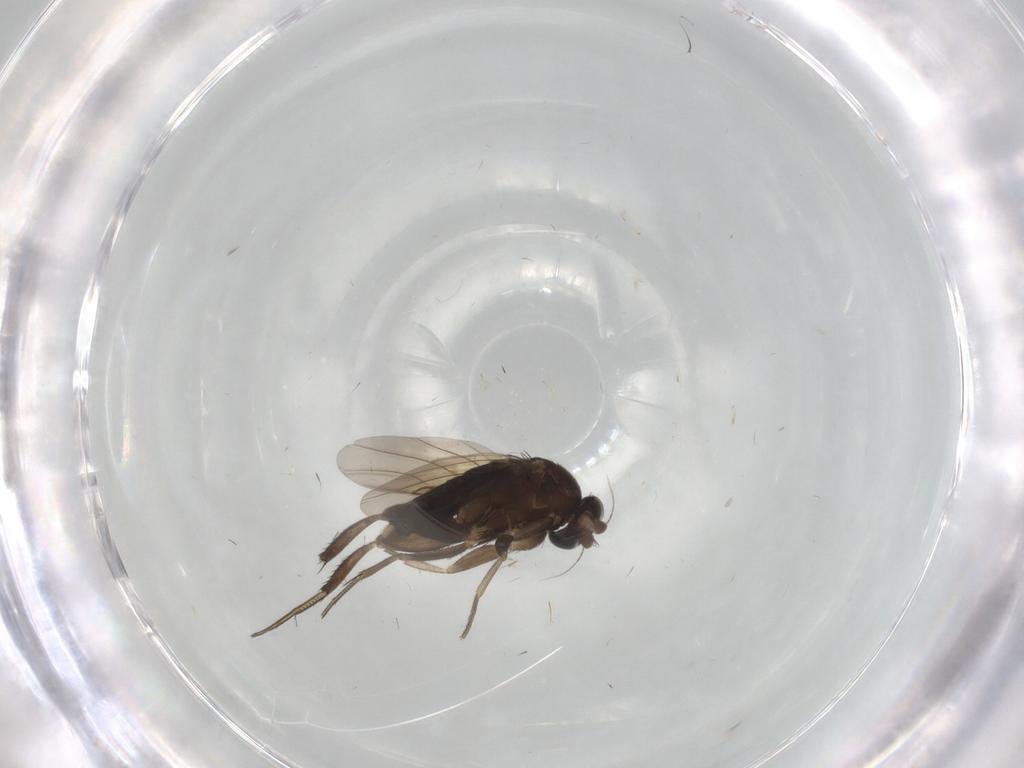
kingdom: Animalia
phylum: Arthropoda
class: Insecta
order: Diptera
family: Phoridae
